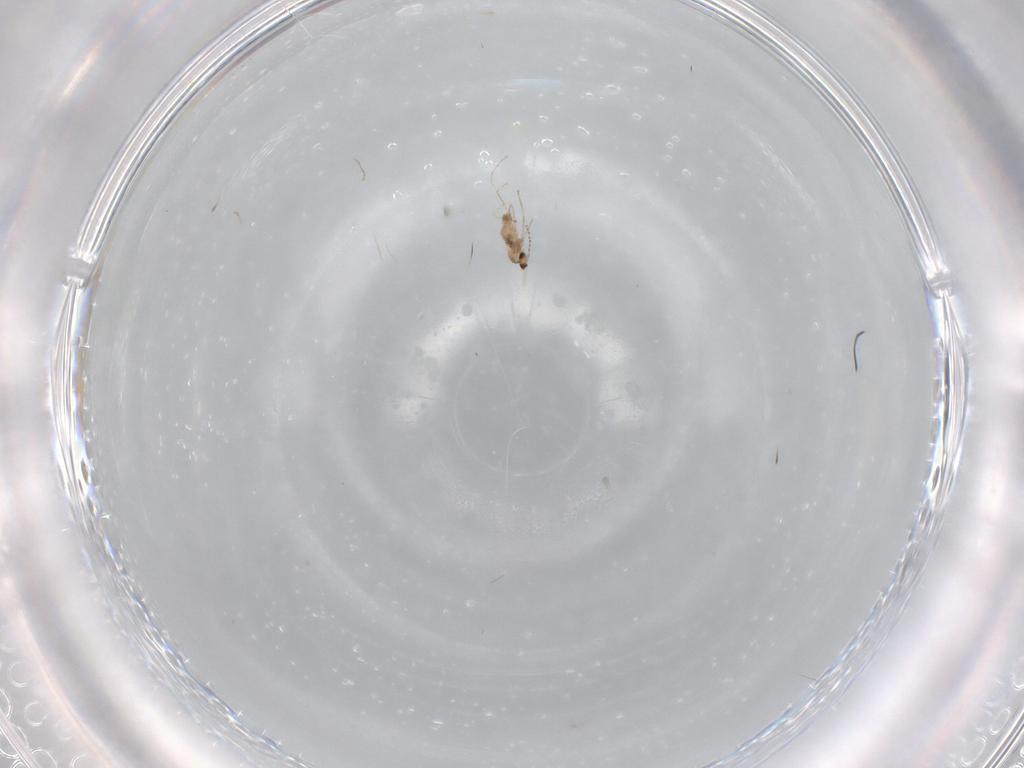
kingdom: Animalia
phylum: Arthropoda
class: Insecta
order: Diptera
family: Cecidomyiidae
